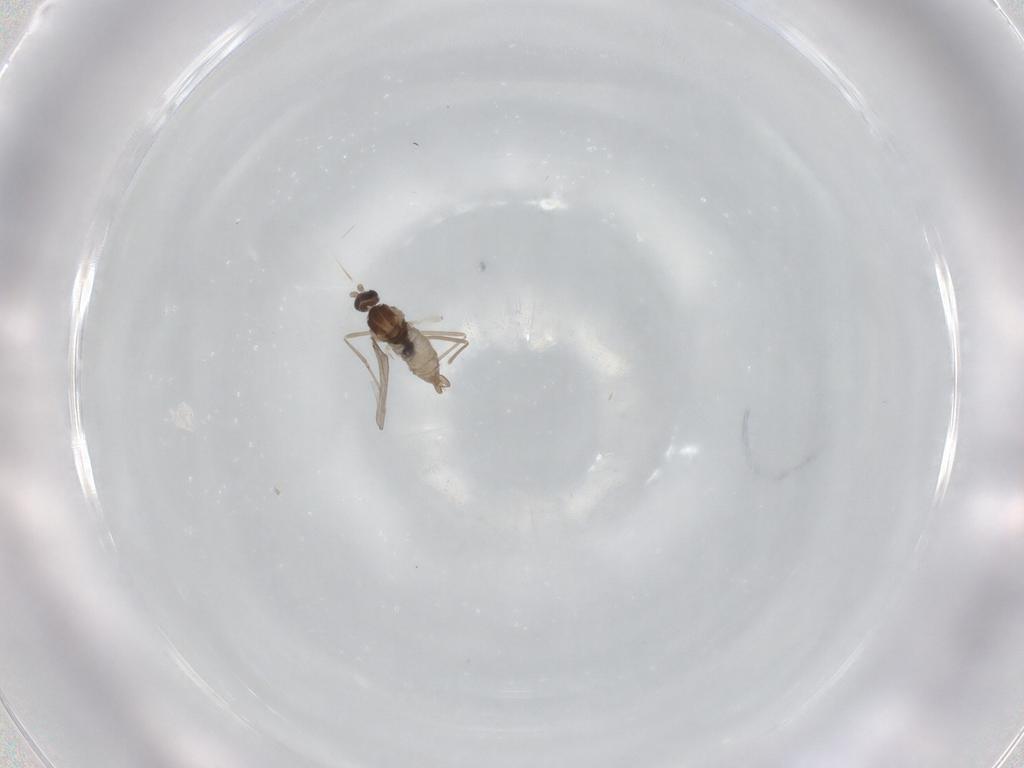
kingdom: Animalia
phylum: Arthropoda
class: Insecta
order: Diptera
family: Cecidomyiidae
